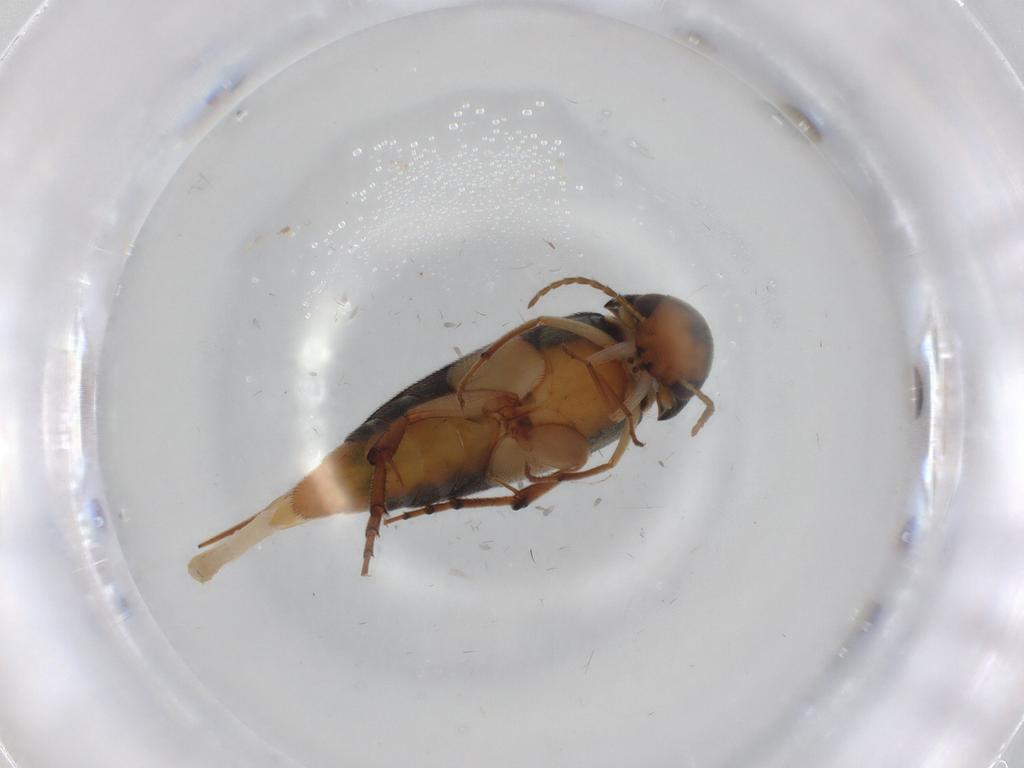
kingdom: Animalia
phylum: Arthropoda
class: Insecta
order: Coleoptera
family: Mordellidae
